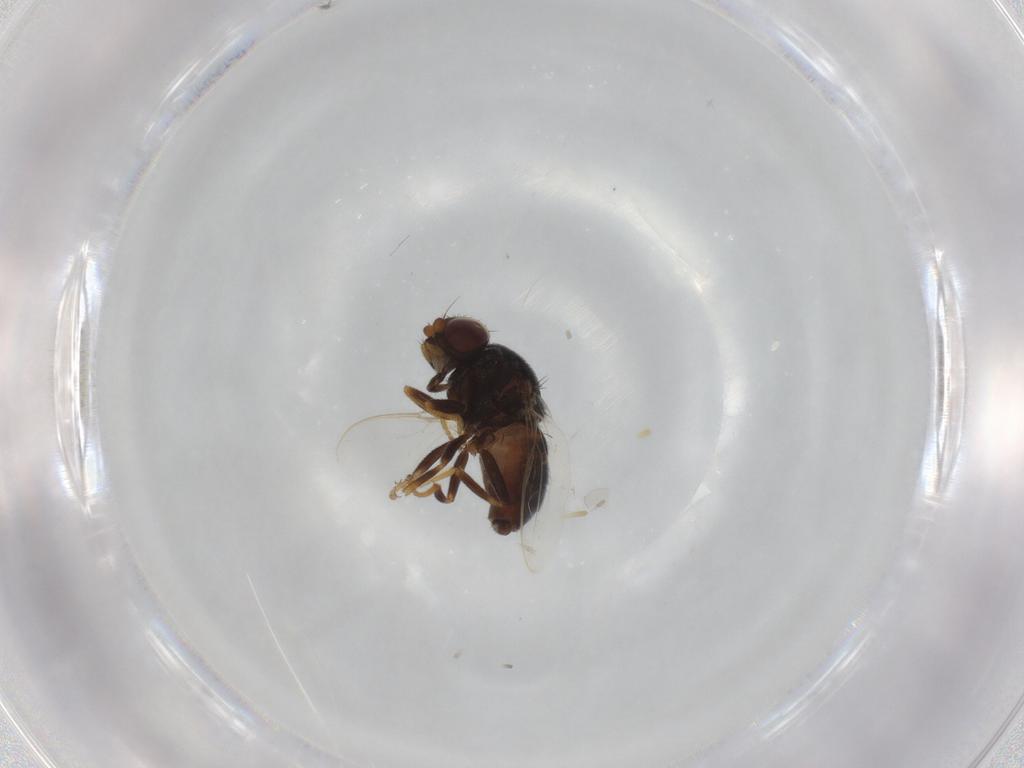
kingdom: Animalia
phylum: Arthropoda
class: Insecta
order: Diptera
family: Chloropidae
